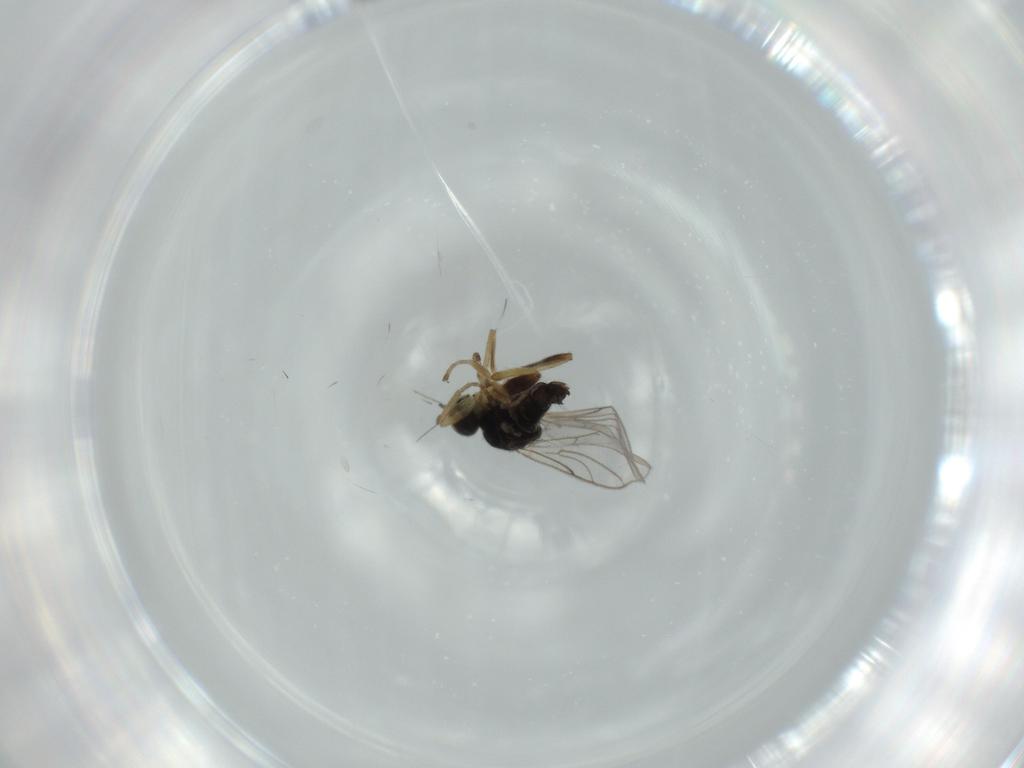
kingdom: Animalia
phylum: Arthropoda
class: Insecta
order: Diptera
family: Hybotidae
